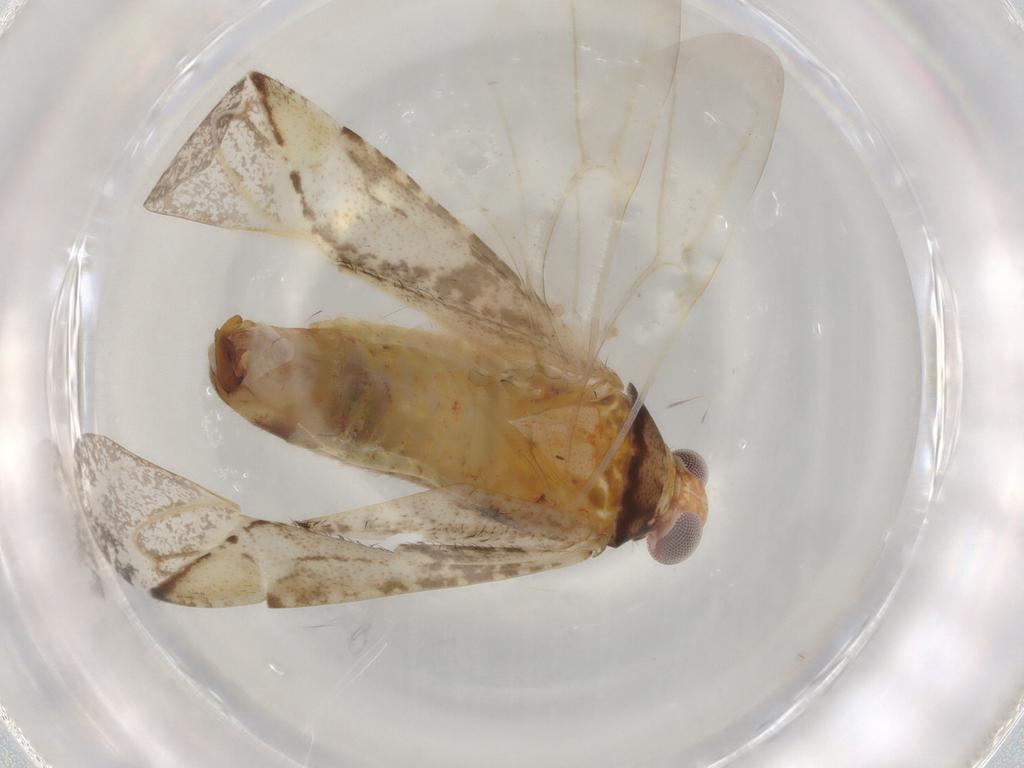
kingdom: Animalia
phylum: Arthropoda
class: Insecta
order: Hemiptera
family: Miridae
